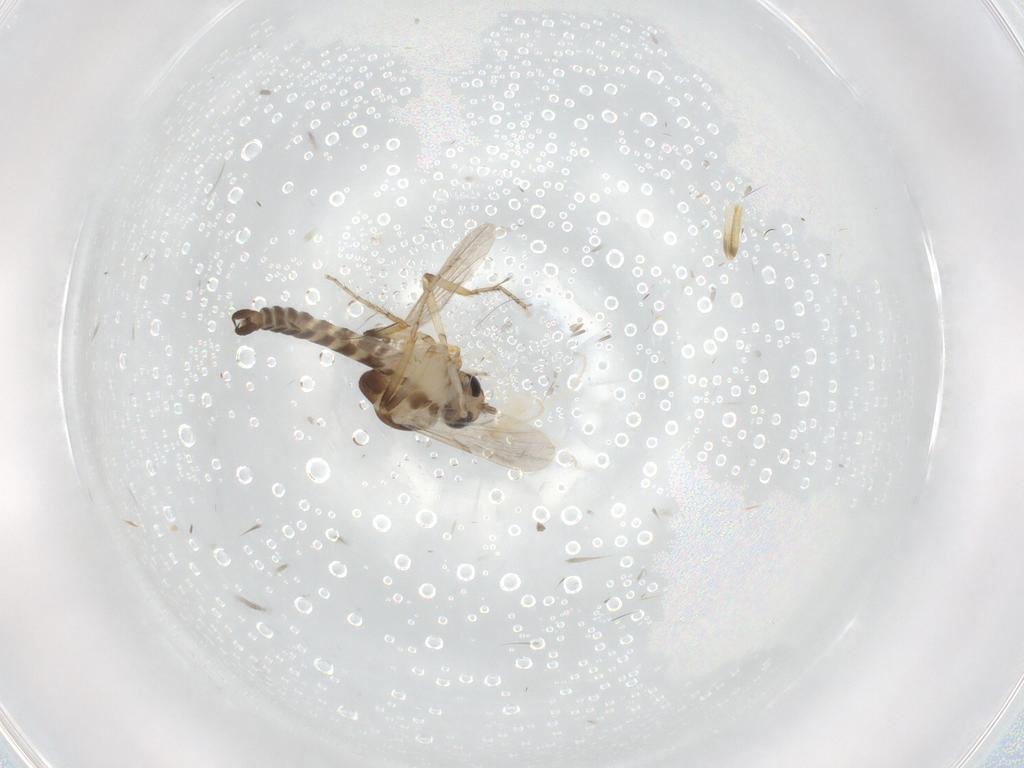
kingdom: Animalia
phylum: Arthropoda
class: Insecta
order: Diptera
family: Ceratopogonidae
